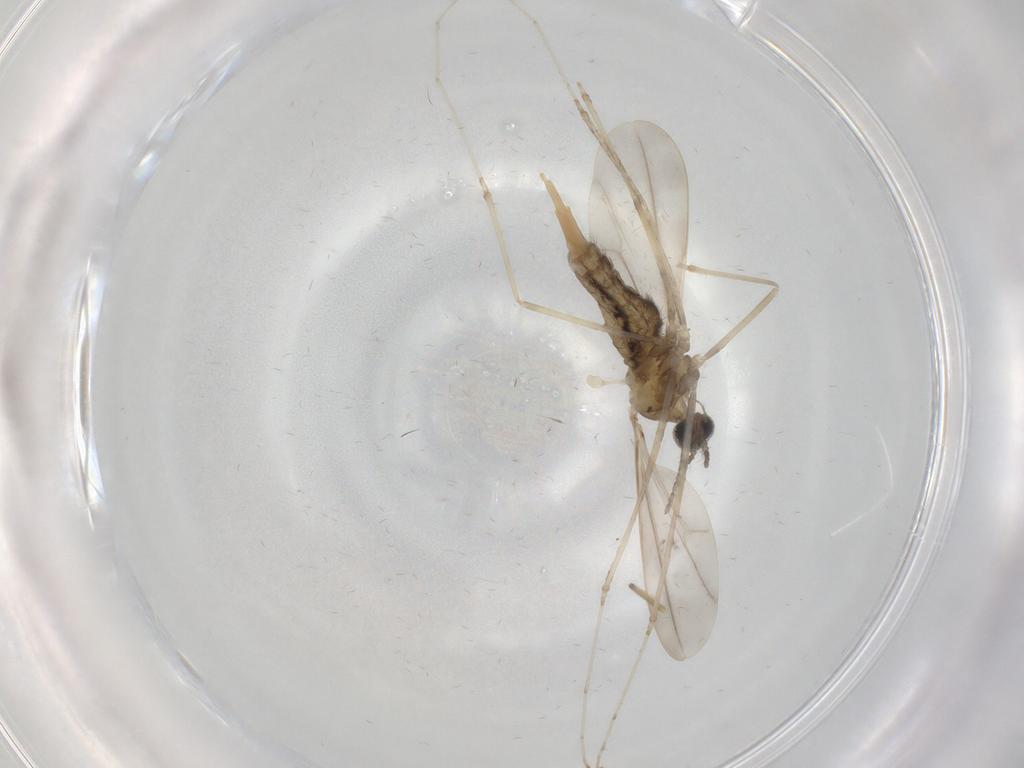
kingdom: Animalia
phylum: Arthropoda
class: Insecta
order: Diptera
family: Cecidomyiidae
